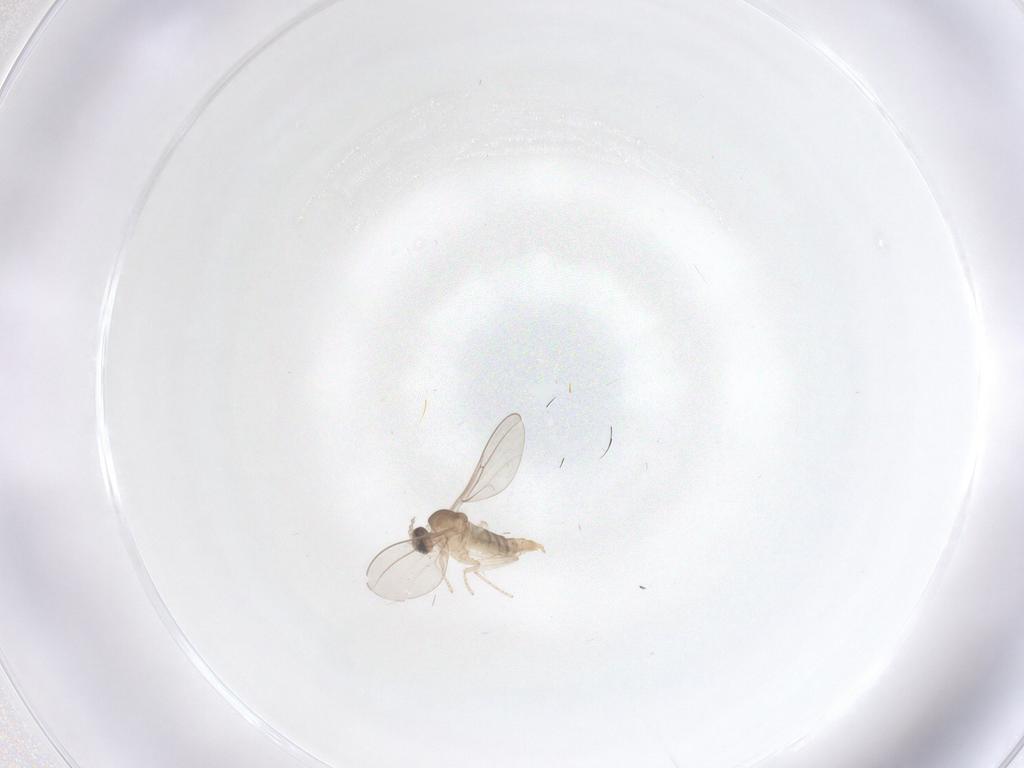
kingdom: Animalia
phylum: Arthropoda
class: Insecta
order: Diptera
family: Cecidomyiidae
